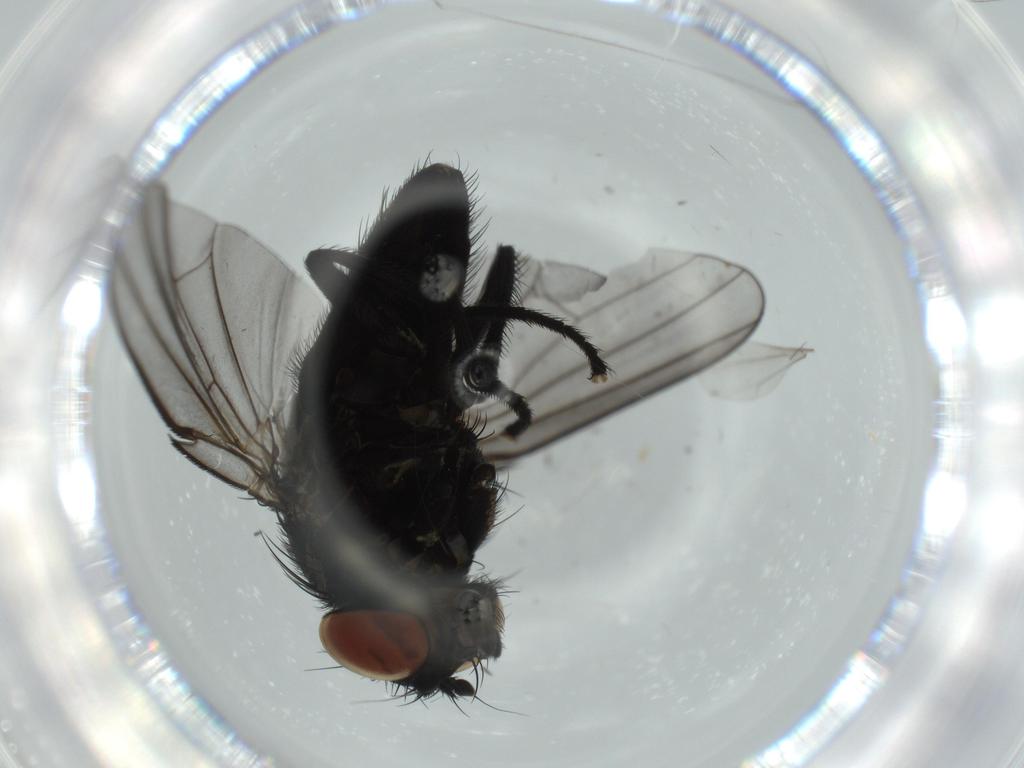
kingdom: Animalia
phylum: Arthropoda
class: Insecta
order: Diptera
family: Milichiidae
